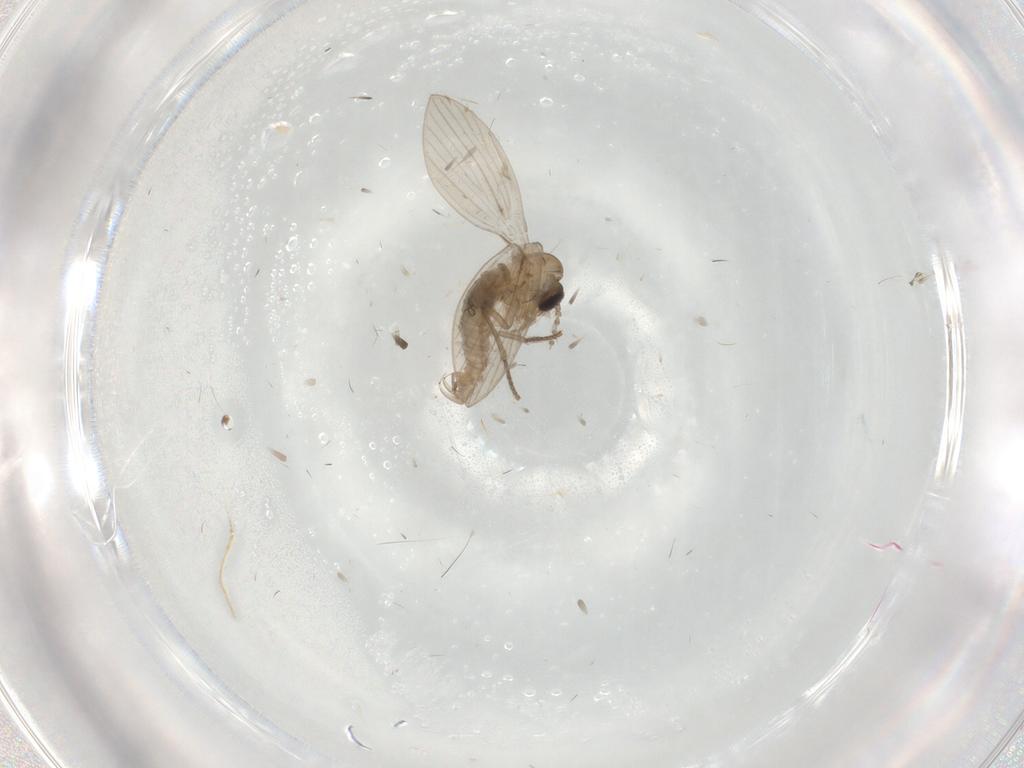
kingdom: Animalia
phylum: Arthropoda
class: Insecta
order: Diptera
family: Psychodidae
